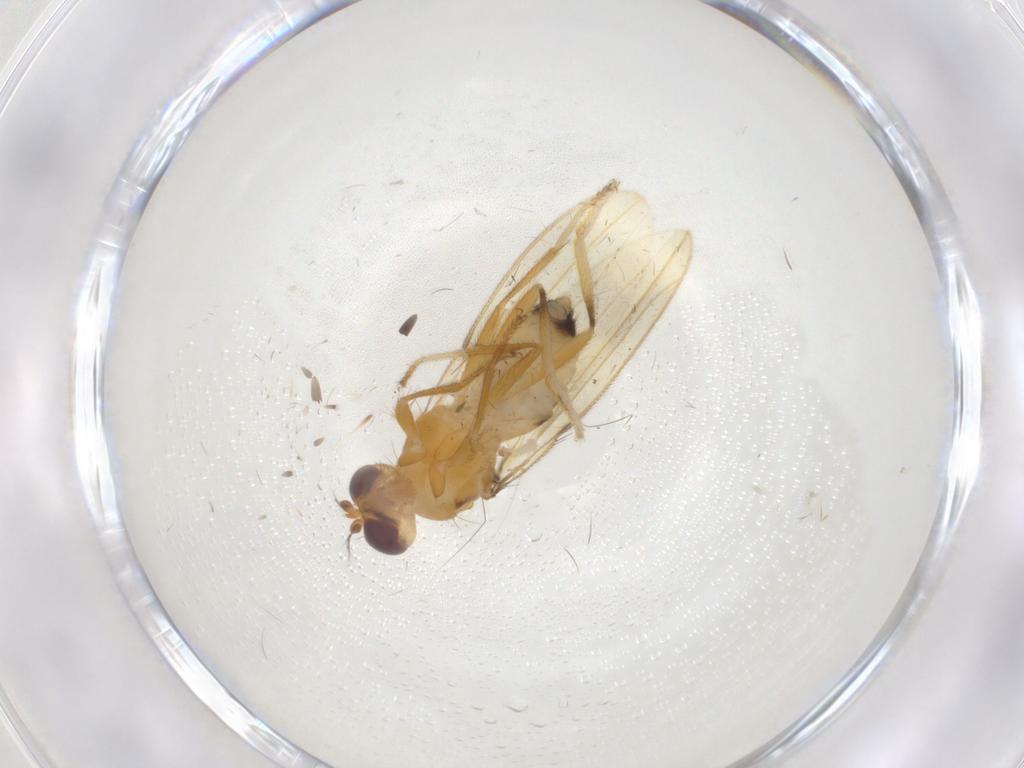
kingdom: Animalia
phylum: Arthropoda
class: Insecta
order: Diptera
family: Periscelididae
